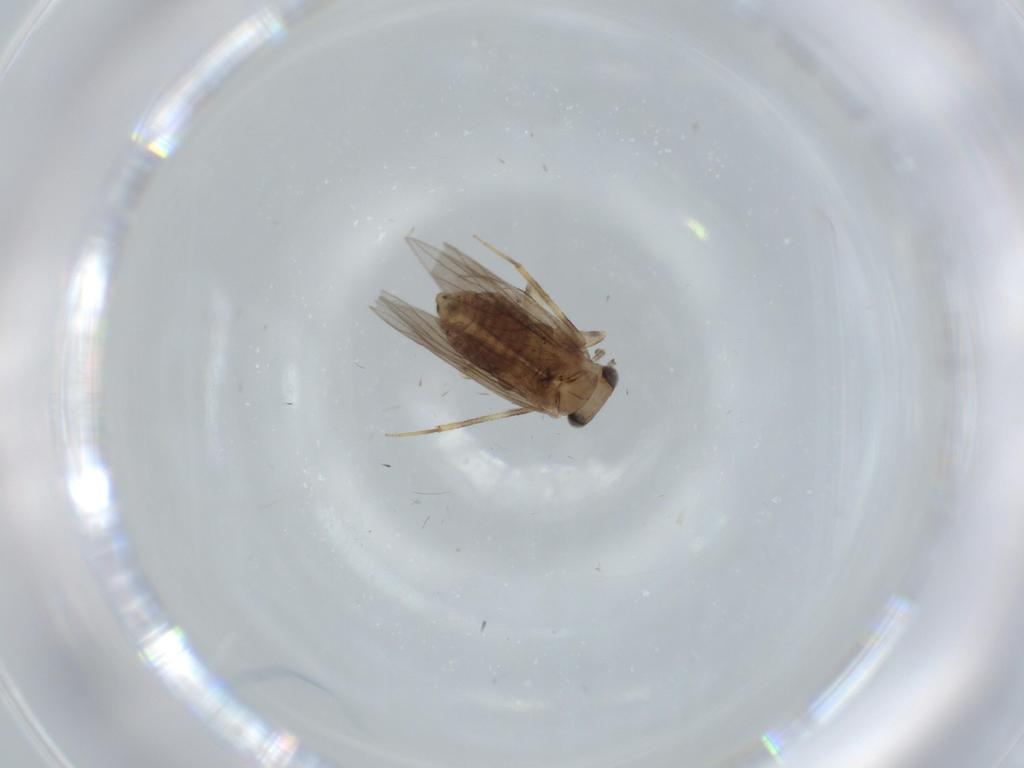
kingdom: Animalia
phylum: Arthropoda
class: Insecta
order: Psocodea
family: Lepidopsocidae
